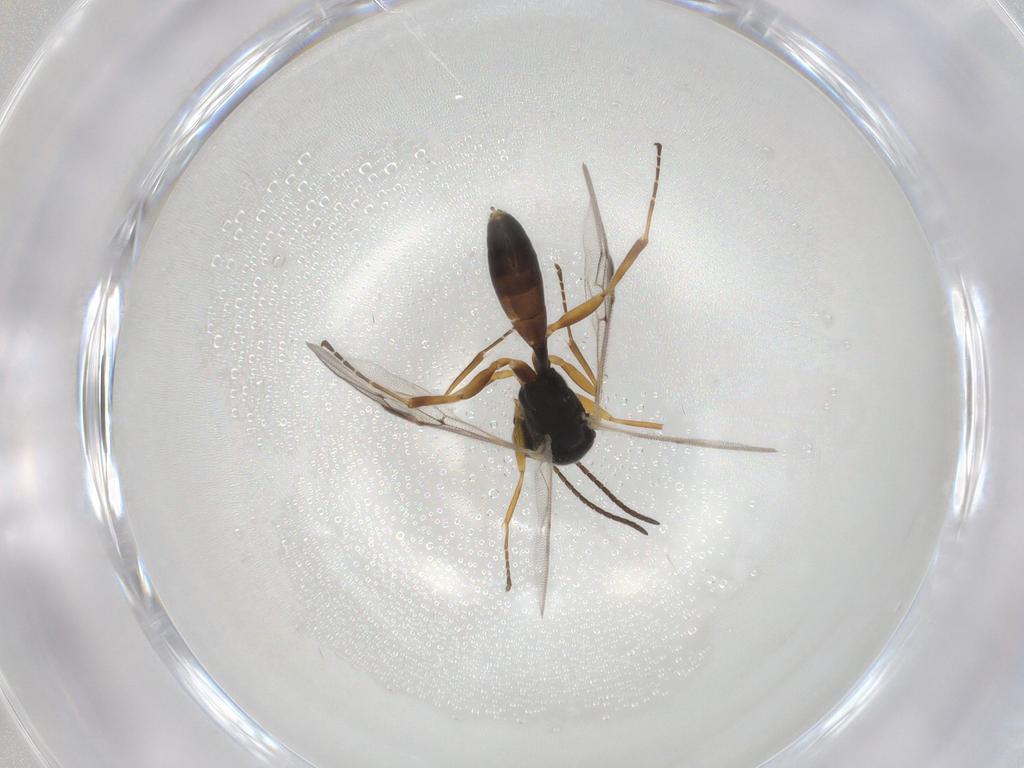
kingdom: Animalia
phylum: Arthropoda
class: Insecta
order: Hymenoptera
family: Ichneumonidae
